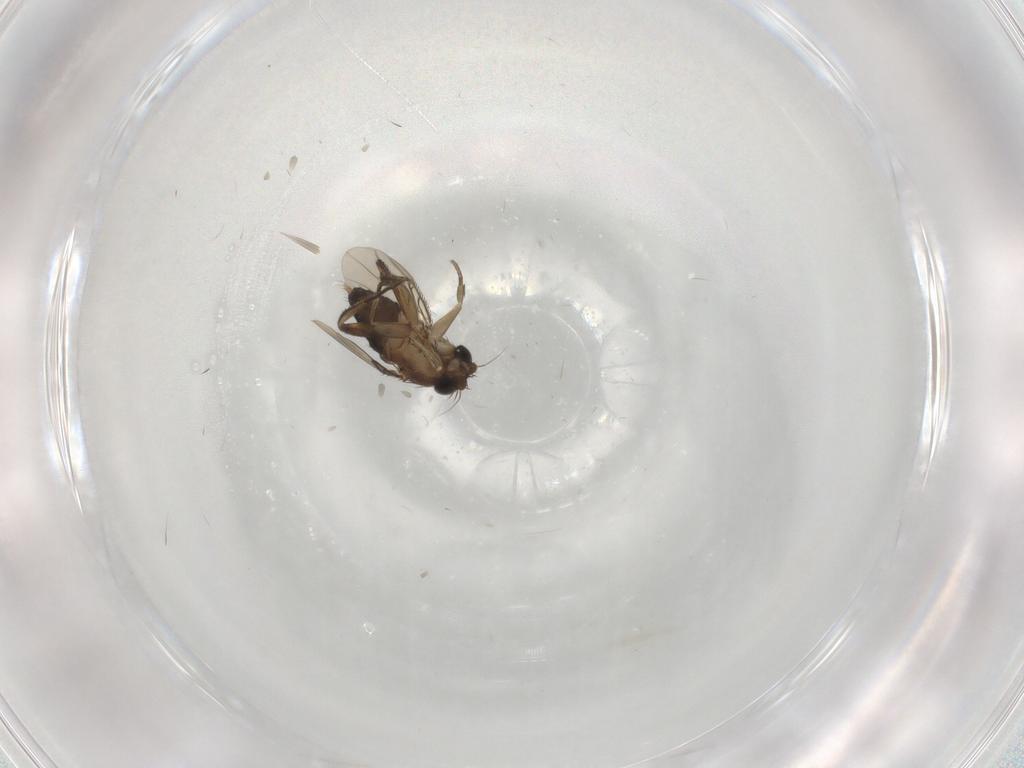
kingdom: Animalia
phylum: Arthropoda
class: Insecta
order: Diptera
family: Phoridae
